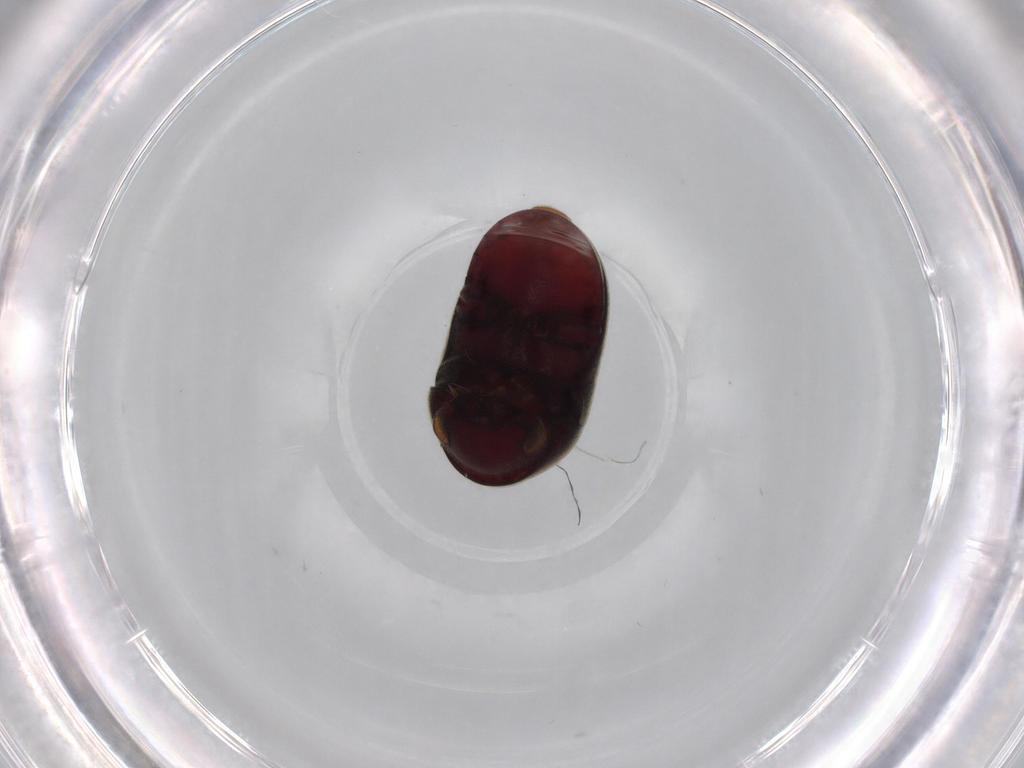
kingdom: Animalia
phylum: Arthropoda
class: Insecta
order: Coleoptera
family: Ptinidae
